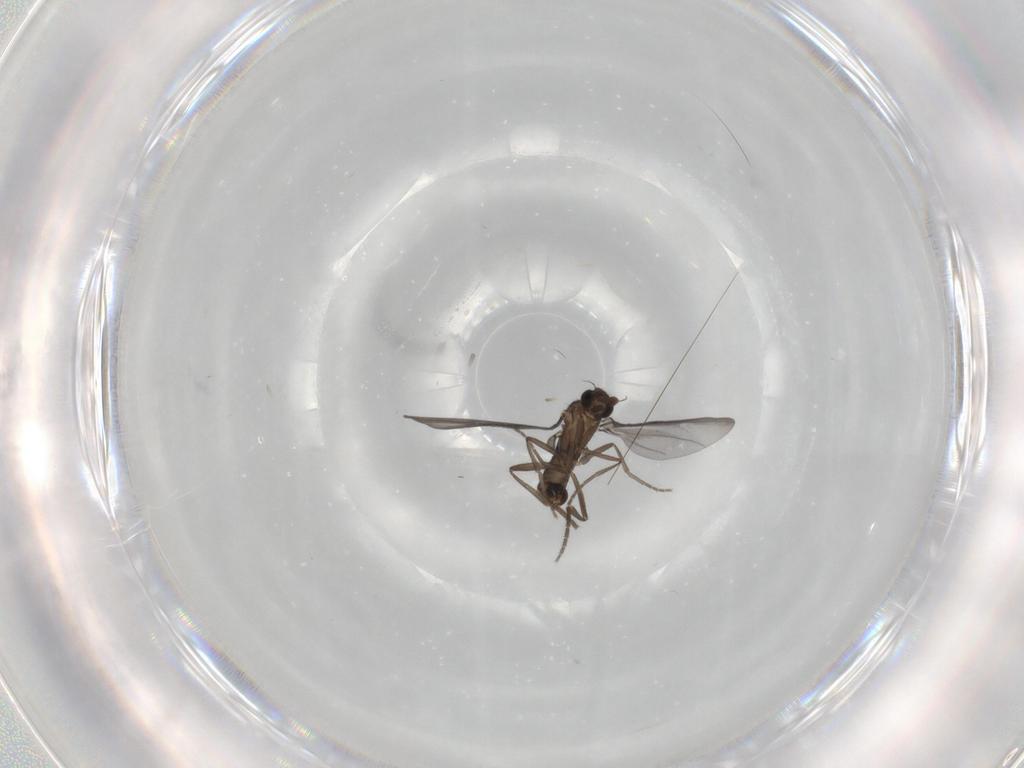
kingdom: Animalia
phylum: Arthropoda
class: Insecta
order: Diptera
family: Phoridae
